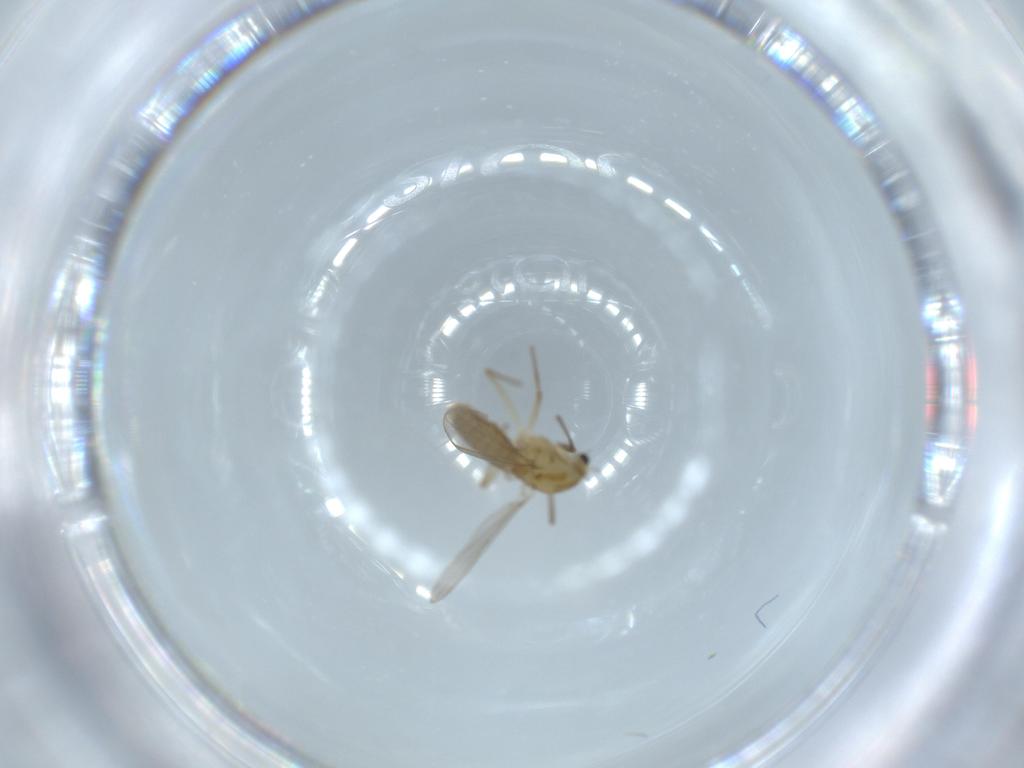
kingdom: Animalia
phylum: Arthropoda
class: Insecta
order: Diptera
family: Chironomidae
